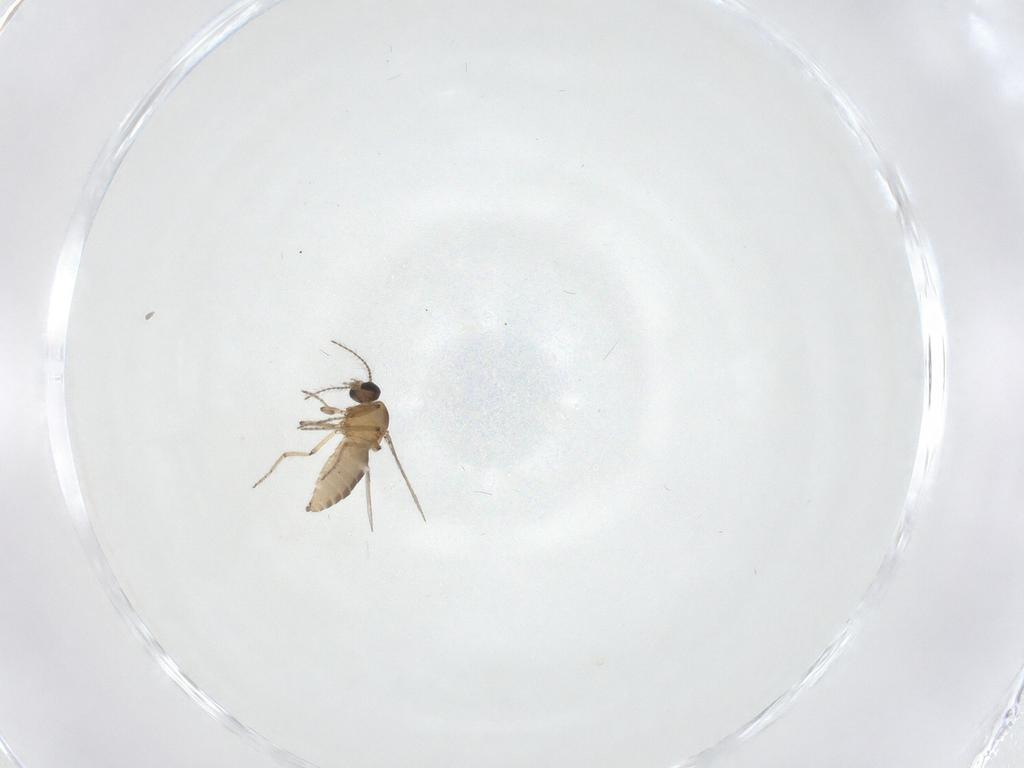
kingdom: Animalia
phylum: Arthropoda
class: Insecta
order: Diptera
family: Ceratopogonidae
